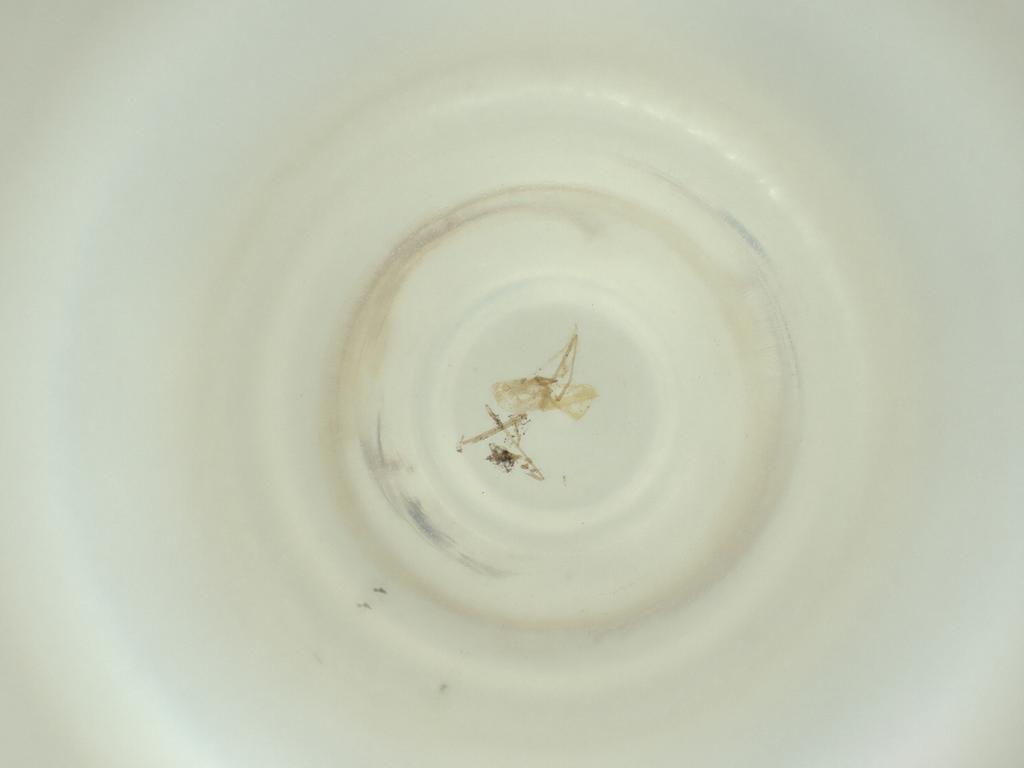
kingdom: Animalia
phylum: Arthropoda
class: Insecta
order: Diptera
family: Cecidomyiidae
